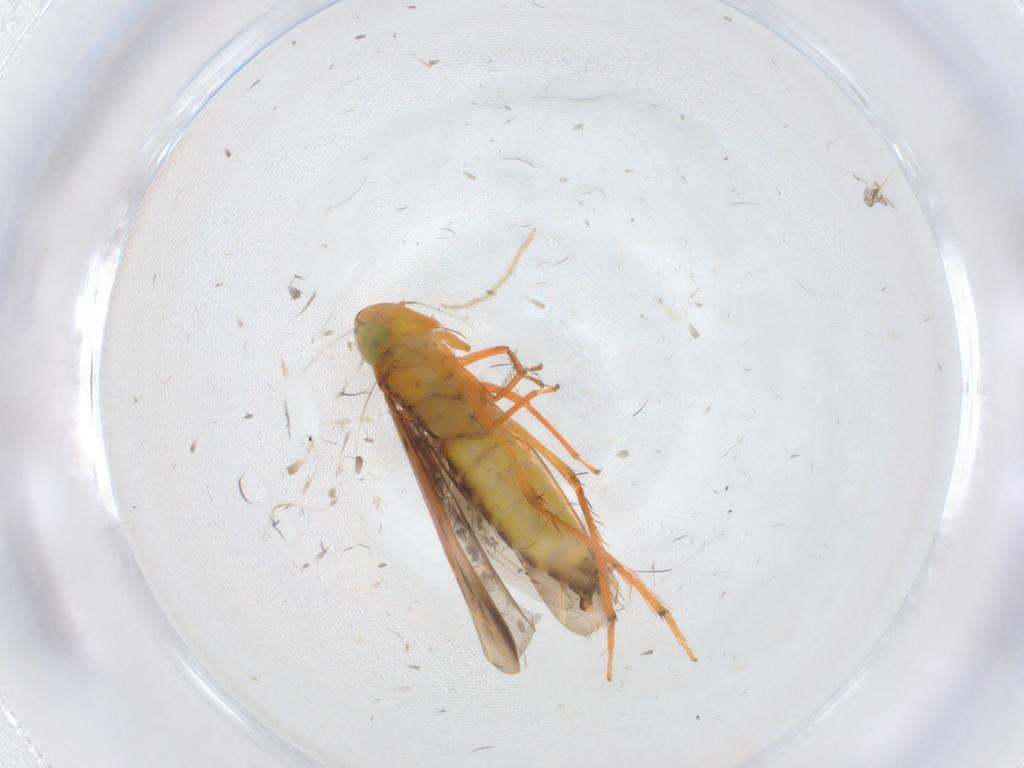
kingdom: Animalia
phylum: Arthropoda
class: Insecta
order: Hemiptera
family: Cicadellidae
